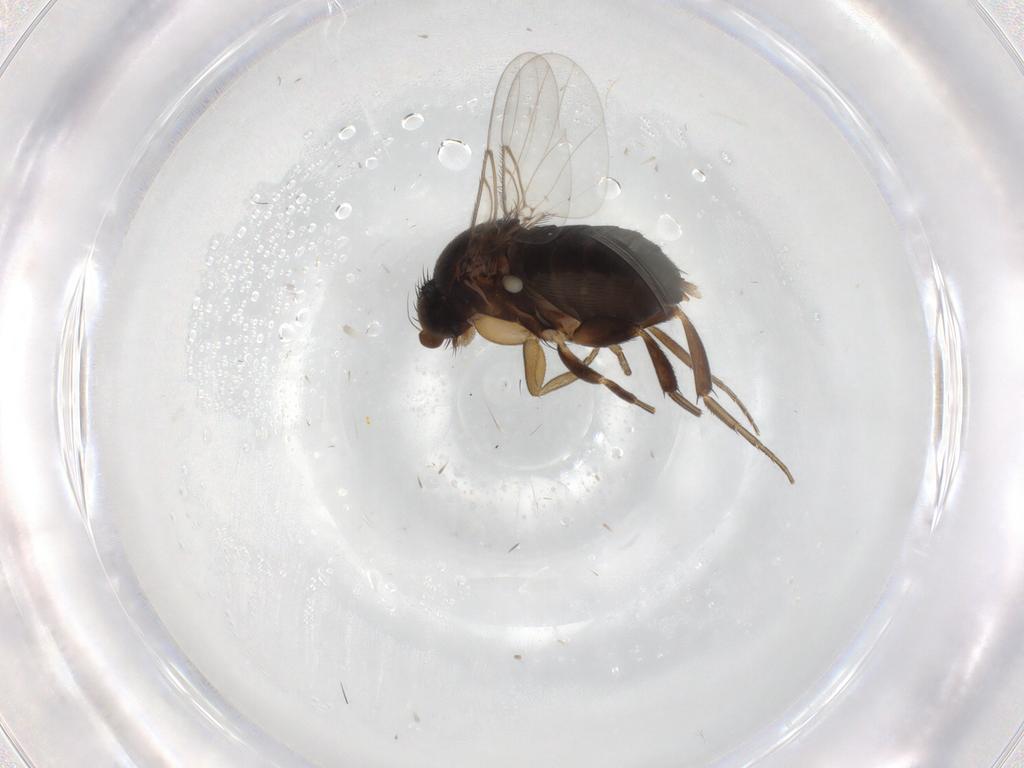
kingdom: Animalia
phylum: Arthropoda
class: Insecta
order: Diptera
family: Phoridae
